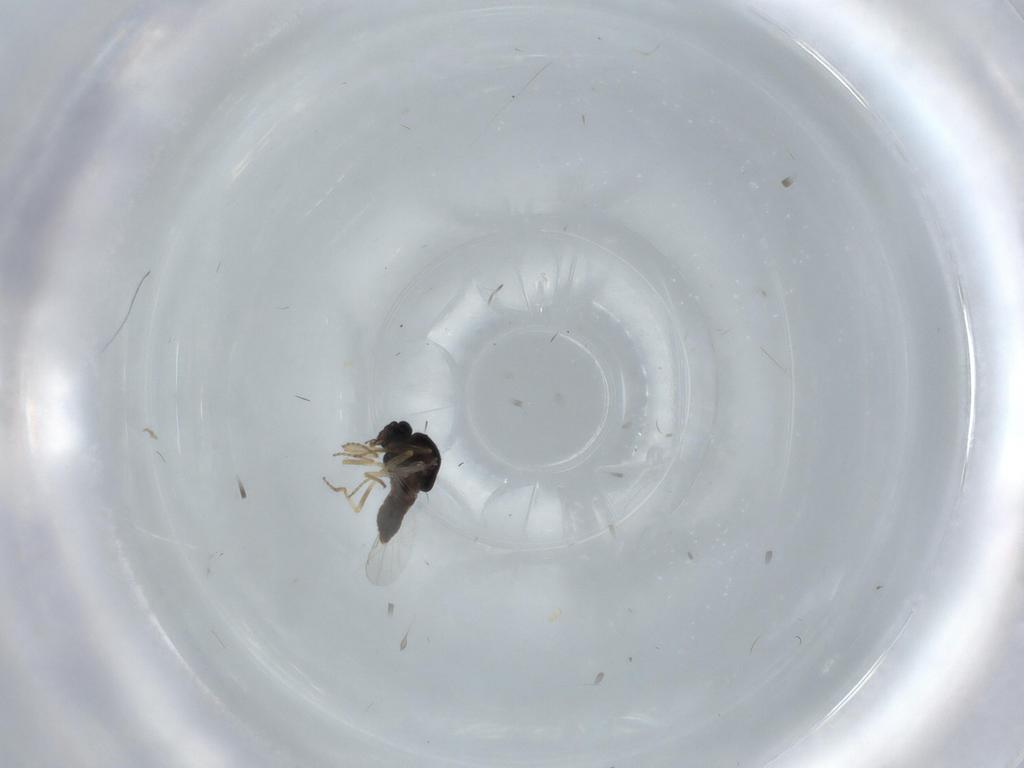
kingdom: Animalia
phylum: Arthropoda
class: Insecta
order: Diptera
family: Ceratopogonidae
